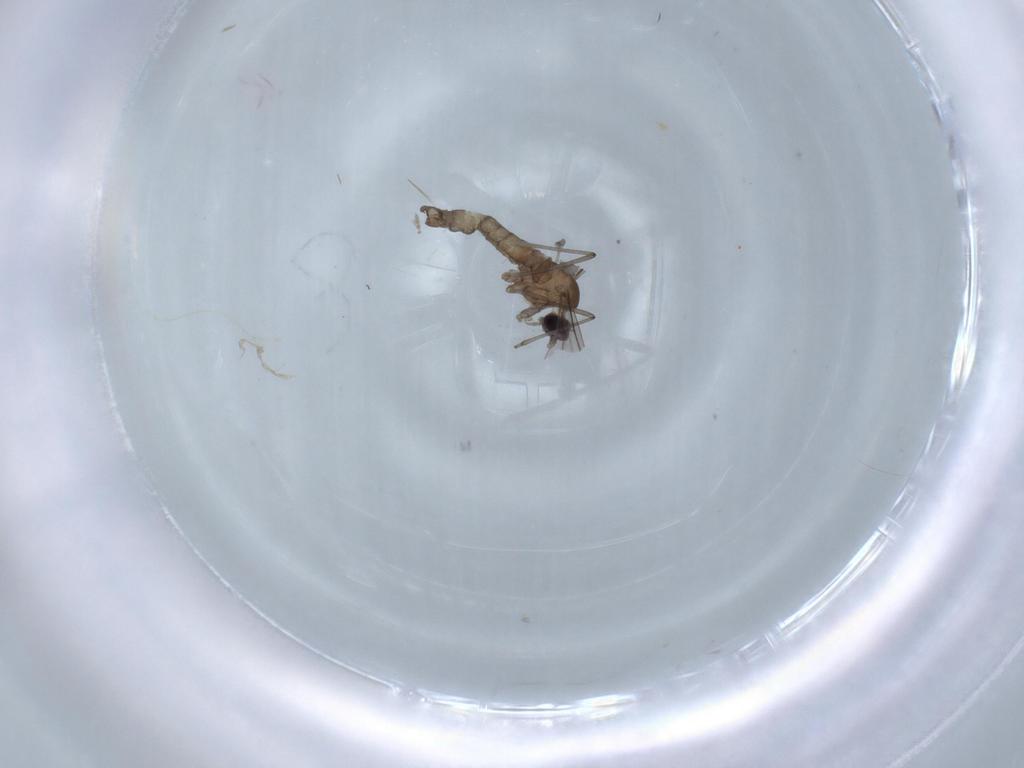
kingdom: Animalia
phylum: Arthropoda
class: Insecta
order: Diptera
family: Cecidomyiidae
